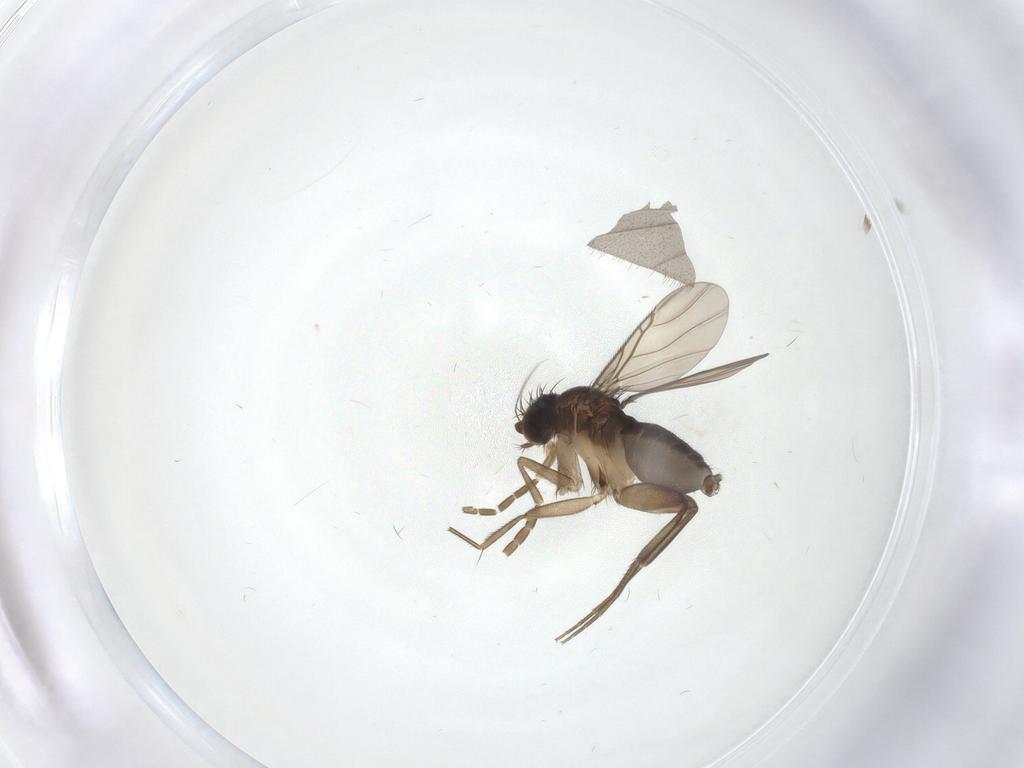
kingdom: Animalia
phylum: Arthropoda
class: Insecta
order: Diptera
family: Phoridae
